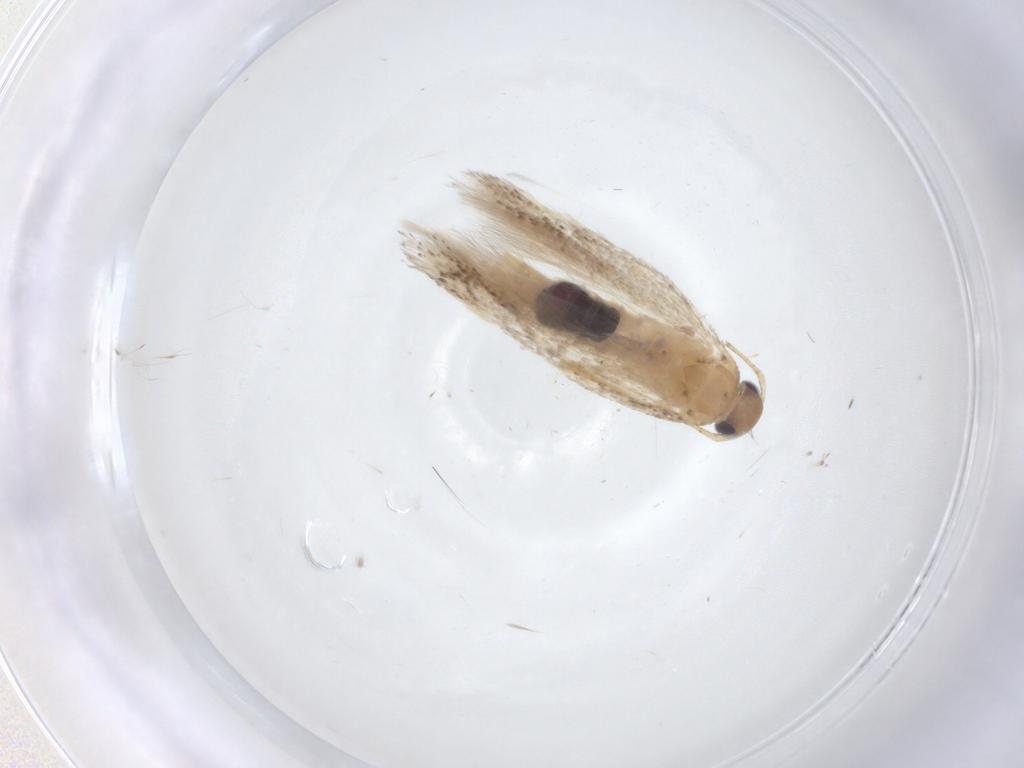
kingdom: Animalia
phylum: Arthropoda
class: Insecta
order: Lepidoptera
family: Gelechiidae
